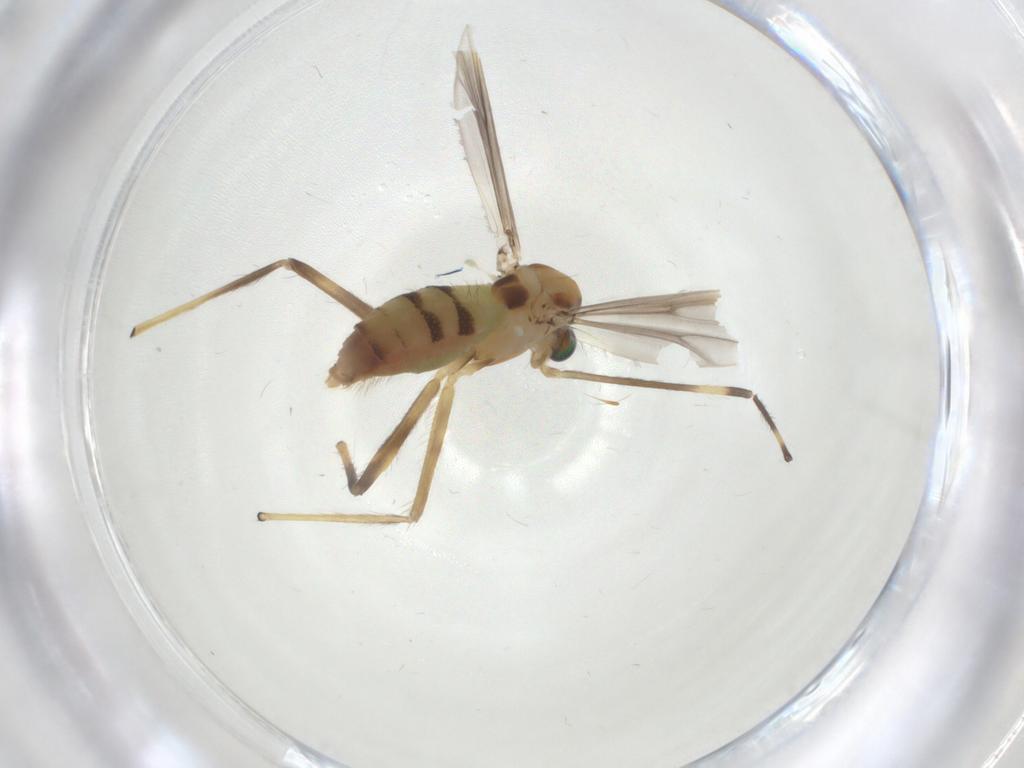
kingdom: Animalia
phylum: Arthropoda
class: Insecta
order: Diptera
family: Chironomidae
